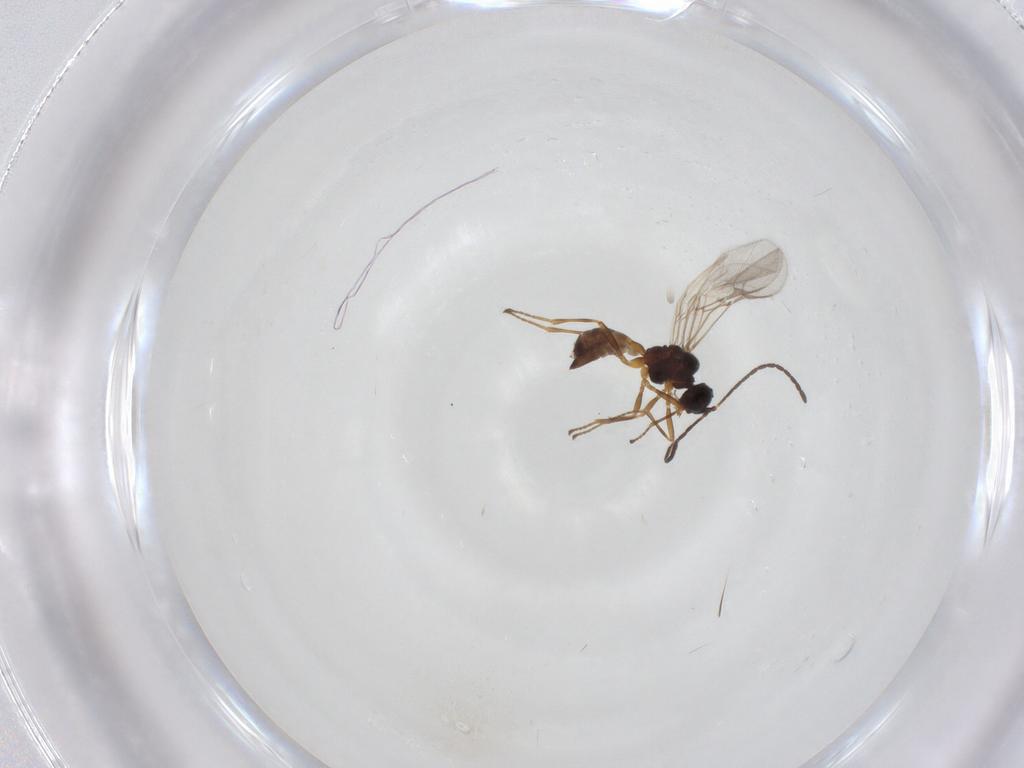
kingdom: Animalia
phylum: Arthropoda
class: Insecta
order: Hymenoptera
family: Braconidae
